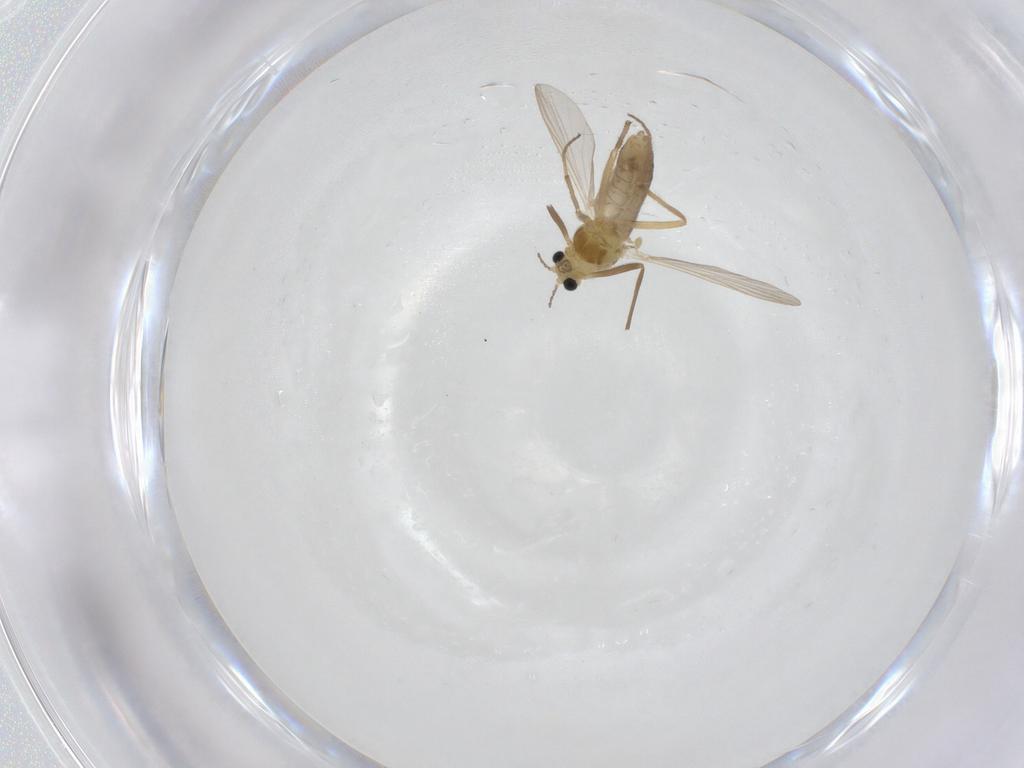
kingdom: Animalia
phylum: Arthropoda
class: Insecta
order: Diptera
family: Chironomidae
